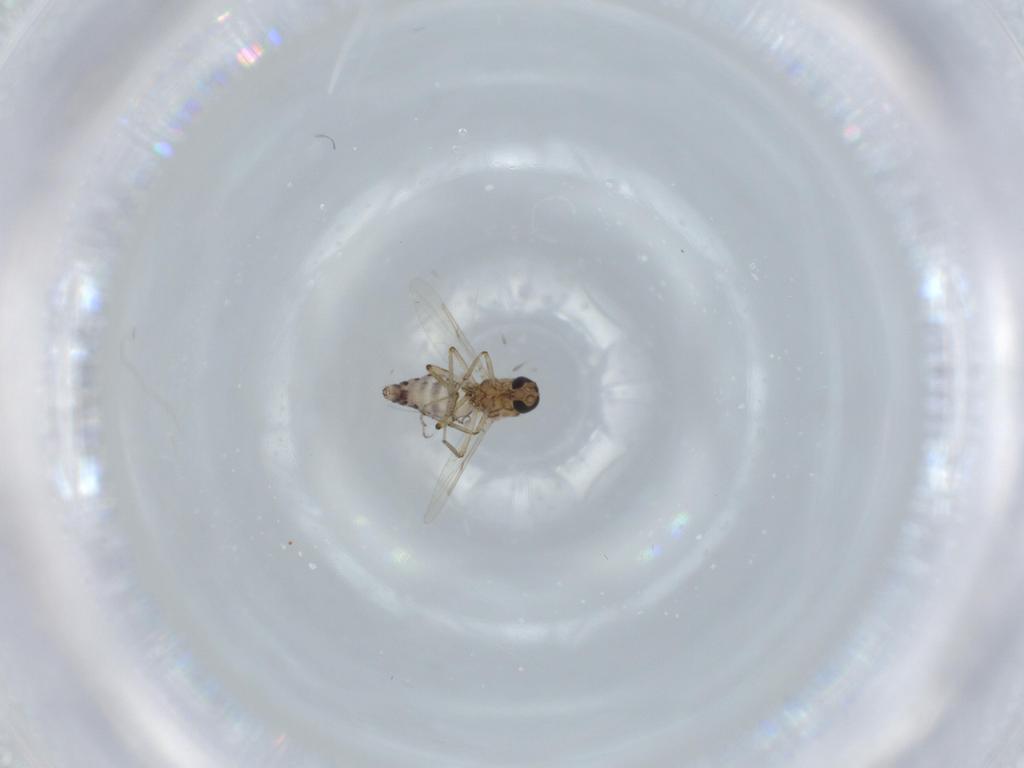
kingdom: Animalia
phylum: Arthropoda
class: Insecta
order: Diptera
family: Ceratopogonidae
